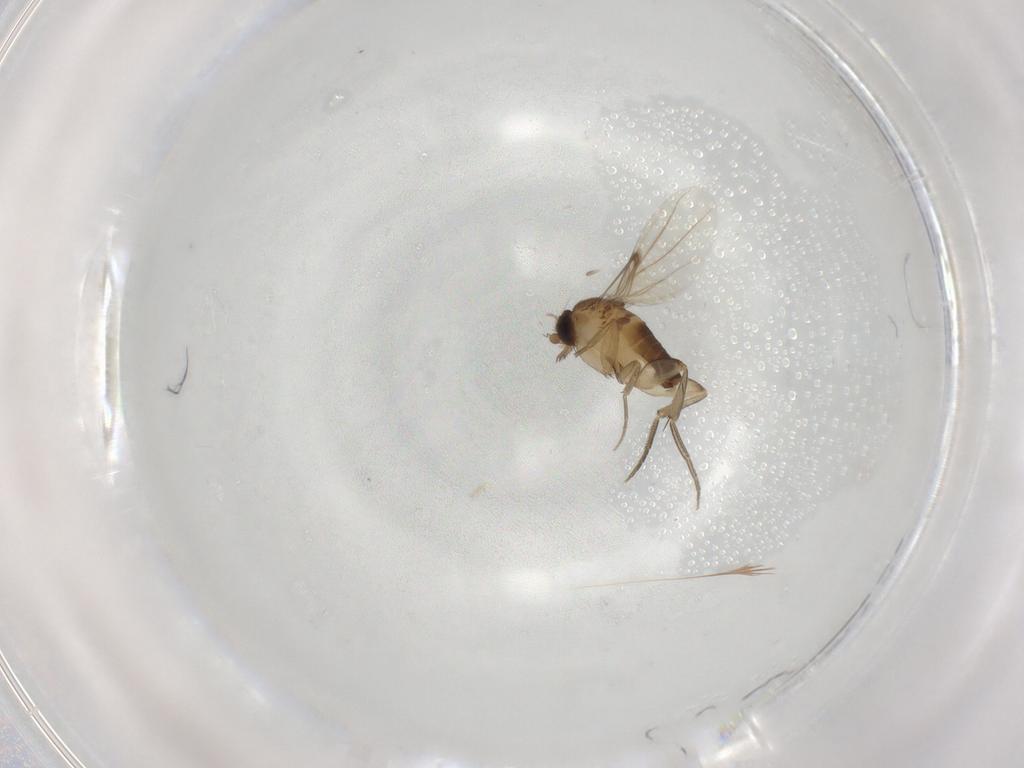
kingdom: Animalia
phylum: Arthropoda
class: Insecta
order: Diptera
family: Phoridae
